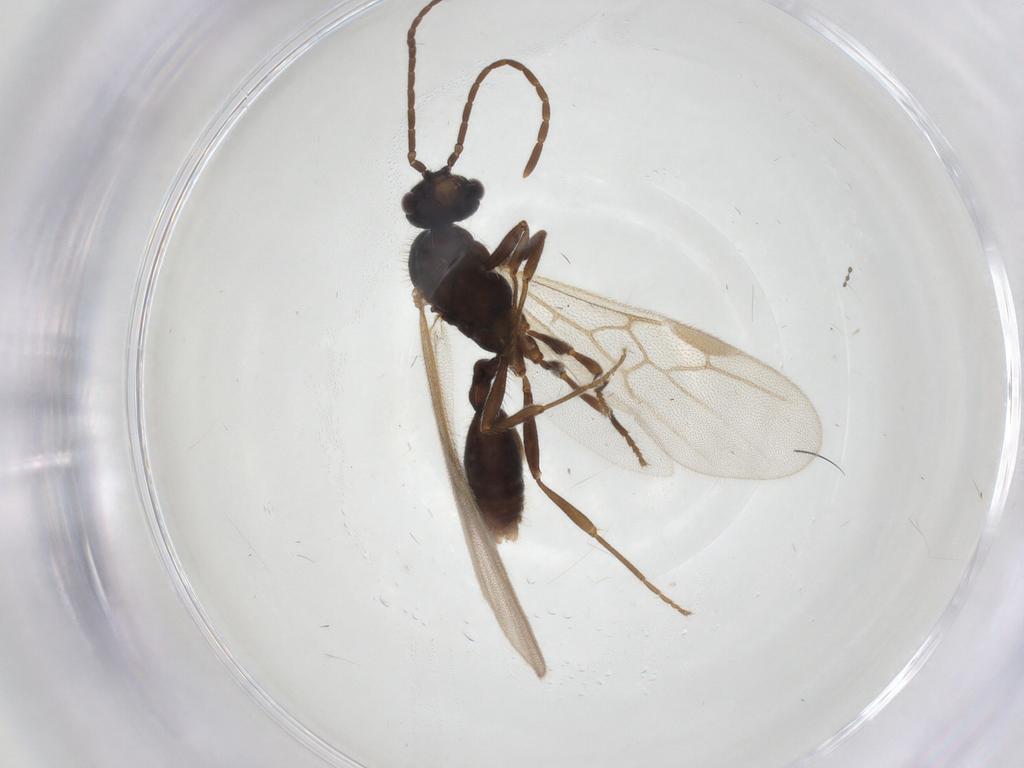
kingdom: Animalia
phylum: Arthropoda
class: Insecta
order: Hymenoptera
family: Formicidae
